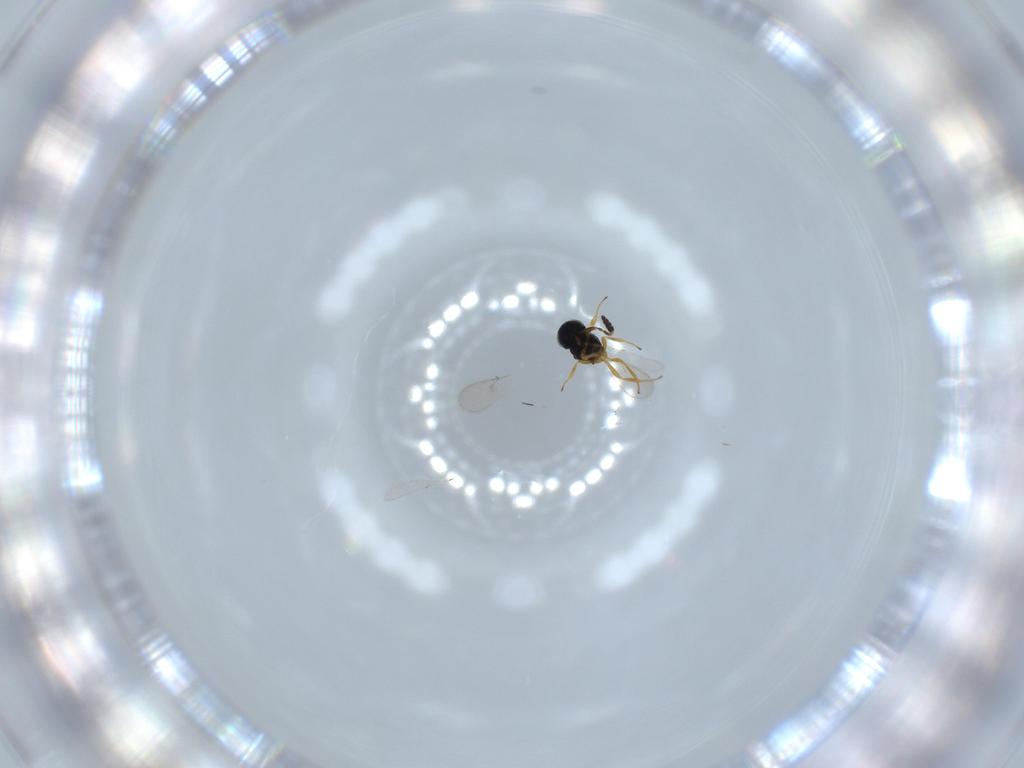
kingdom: Animalia
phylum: Arthropoda
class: Insecta
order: Hymenoptera
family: Scelionidae
